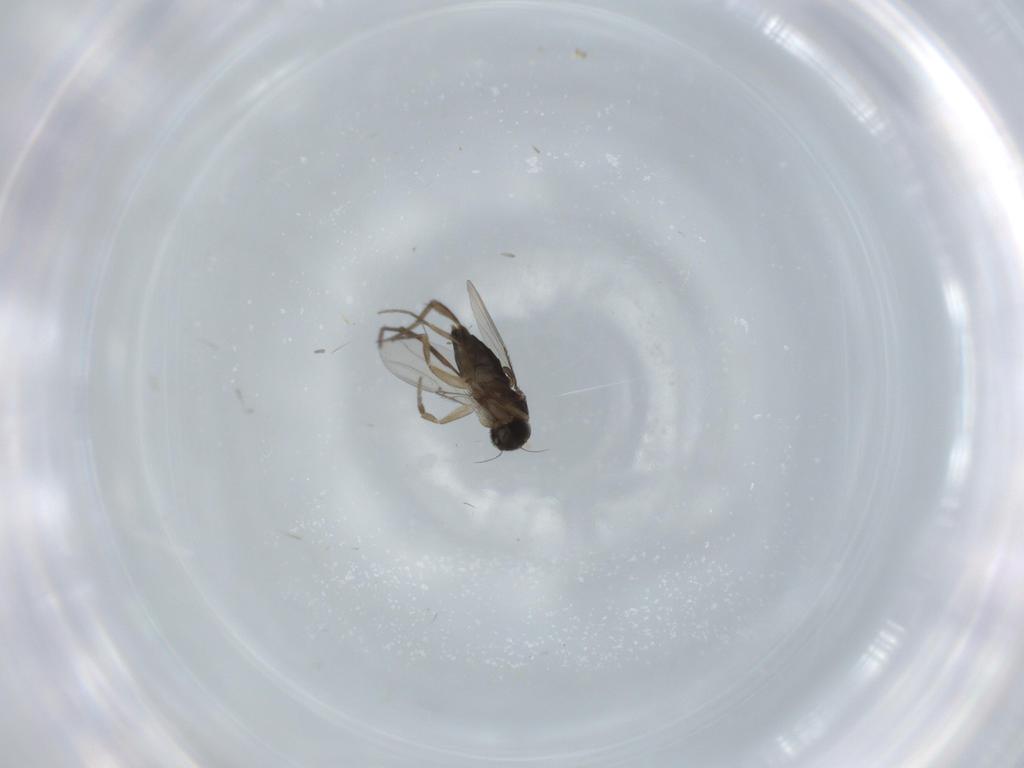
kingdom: Animalia
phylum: Arthropoda
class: Insecta
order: Diptera
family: Phoridae
